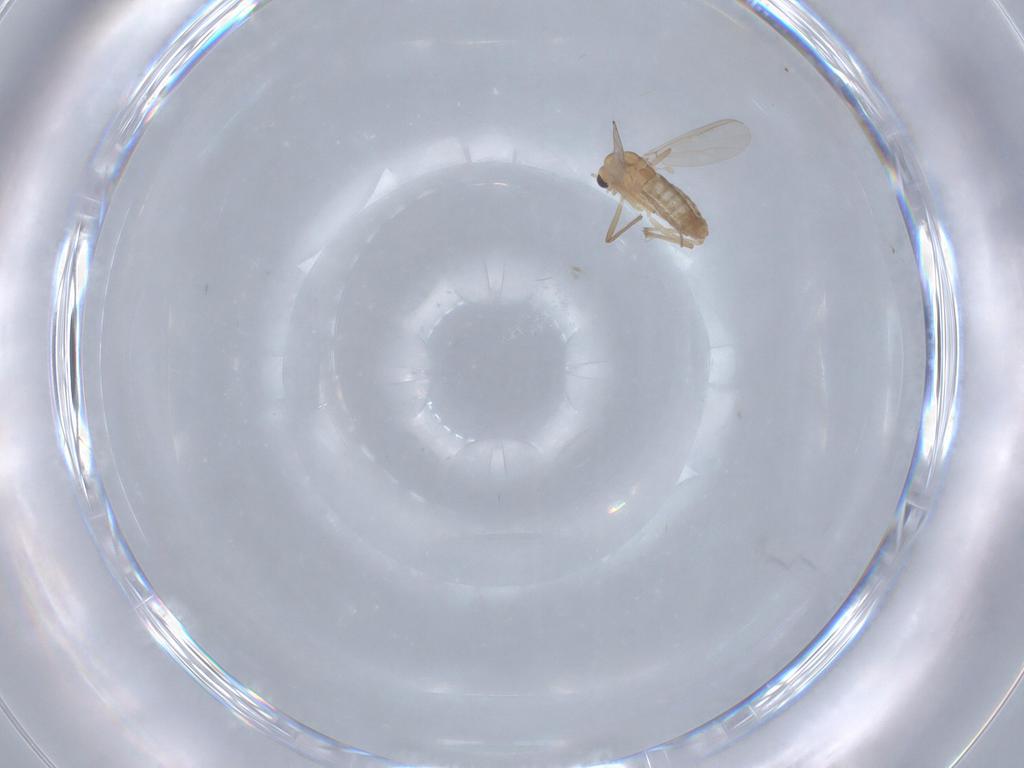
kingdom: Animalia
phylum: Arthropoda
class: Insecta
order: Diptera
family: Chironomidae
